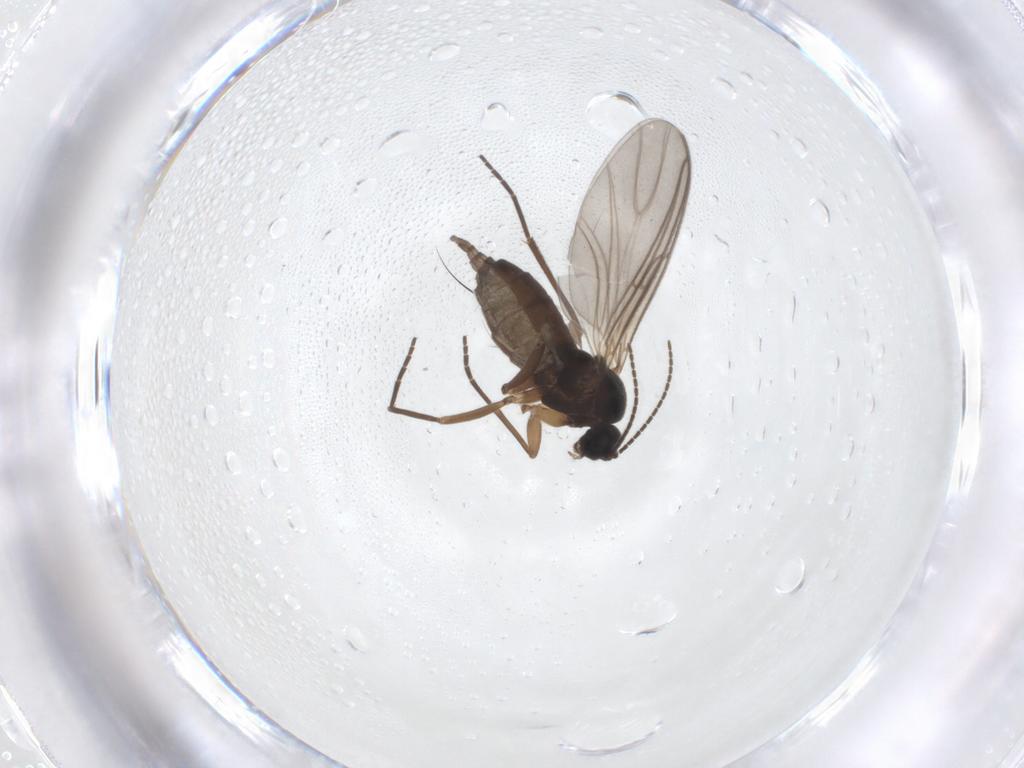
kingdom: Animalia
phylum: Arthropoda
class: Insecta
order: Diptera
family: Sciaridae
